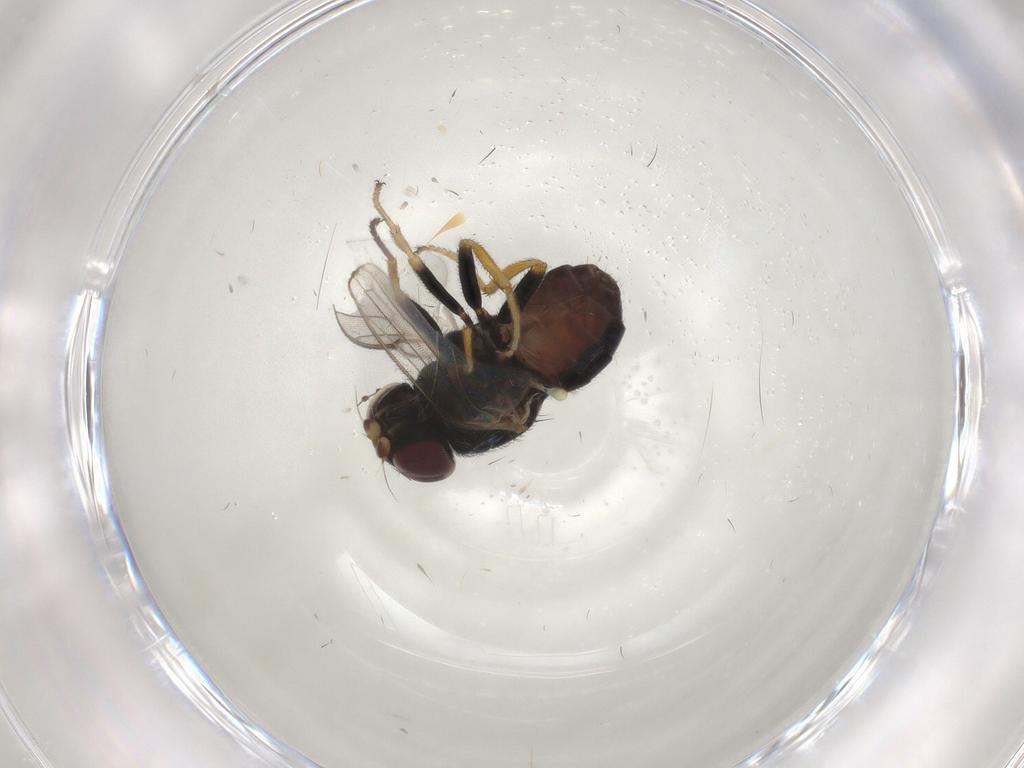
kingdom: Animalia
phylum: Arthropoda
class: Insecta
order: Diptera
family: Chloropidae
